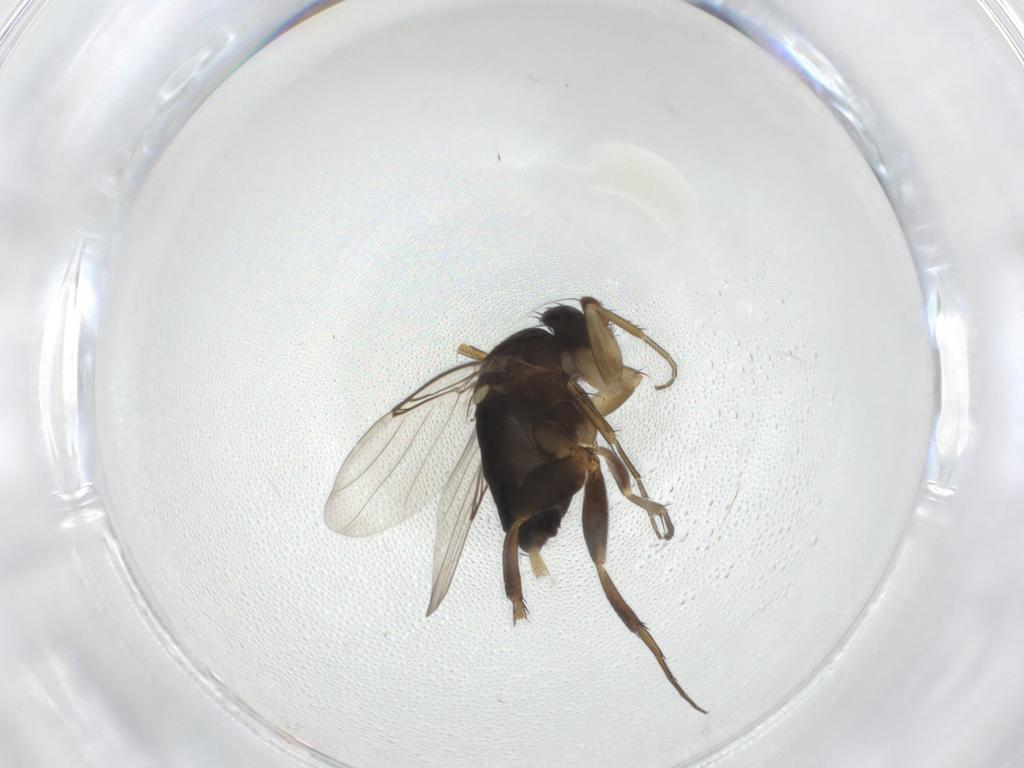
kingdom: Animalia
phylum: Arthropoda
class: Insecta
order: Diptera
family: Phoridae
